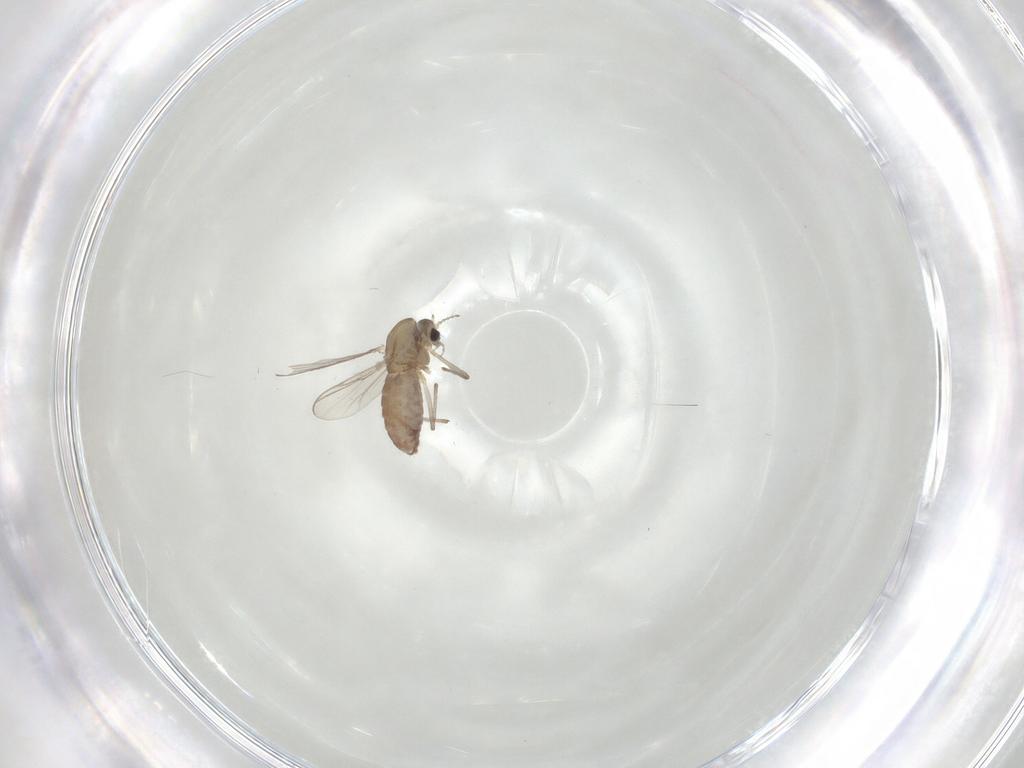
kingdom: Animalia
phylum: Arthropoda
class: Insecta
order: Diptera
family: Chironomidae
